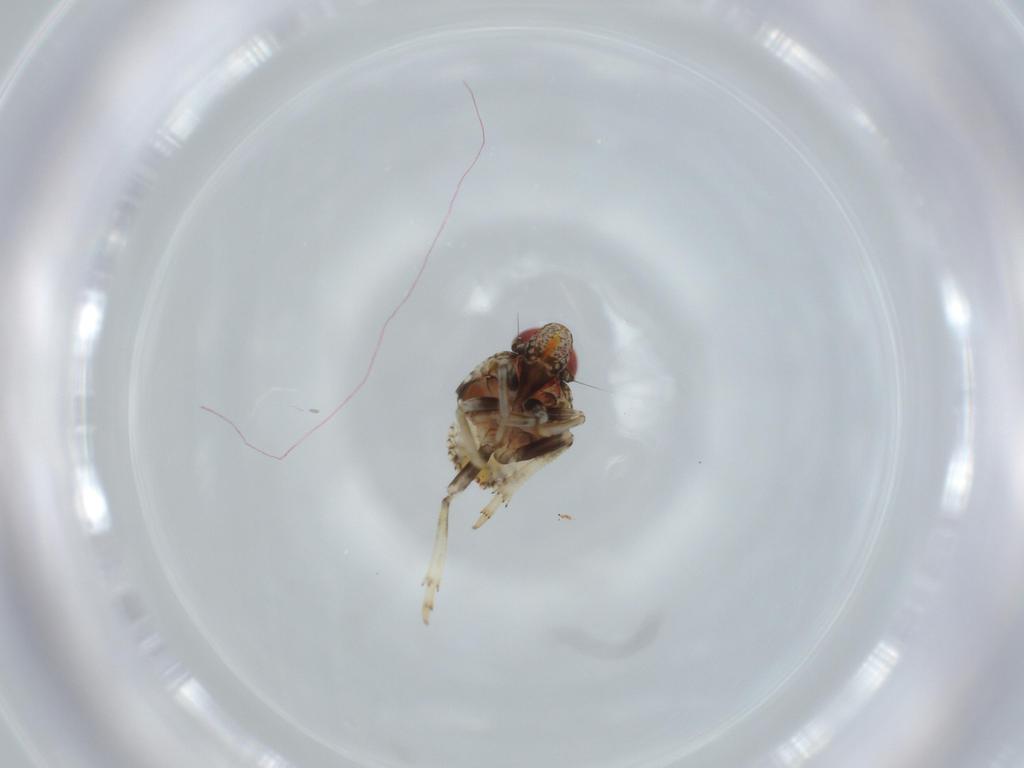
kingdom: Animalia
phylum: Arthropoda
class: Insecta
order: Hemiptera
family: Issidae
